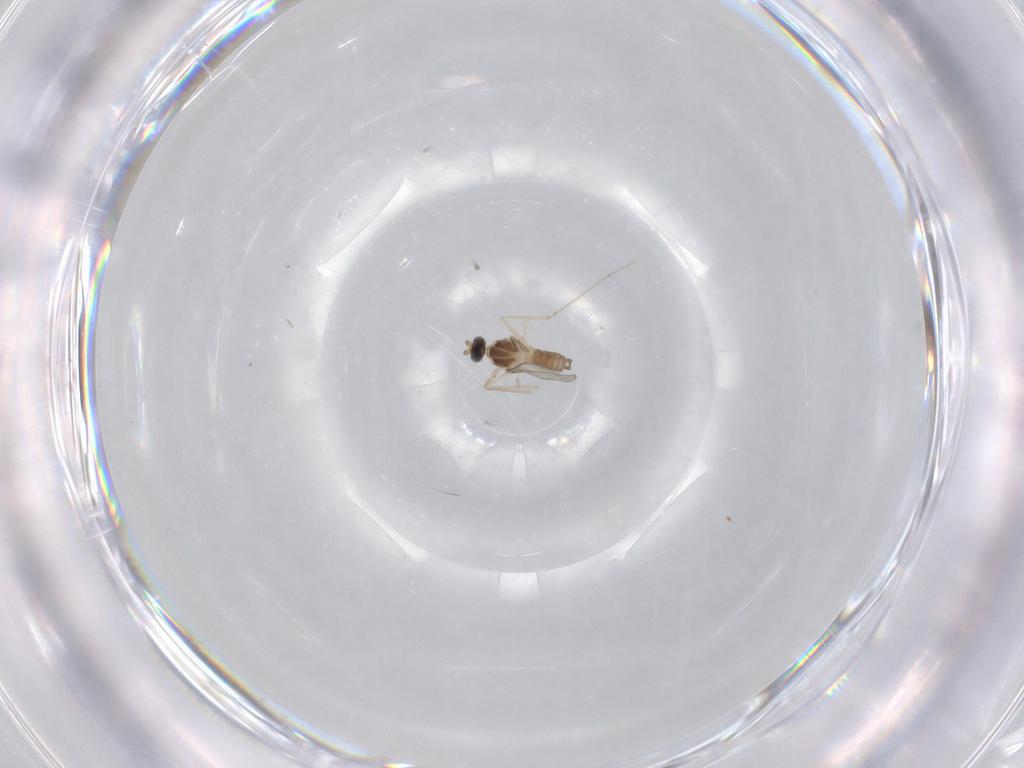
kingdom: Animalia
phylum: Arthropoda
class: Insecta
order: Diptera
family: Cecidomyiidae
